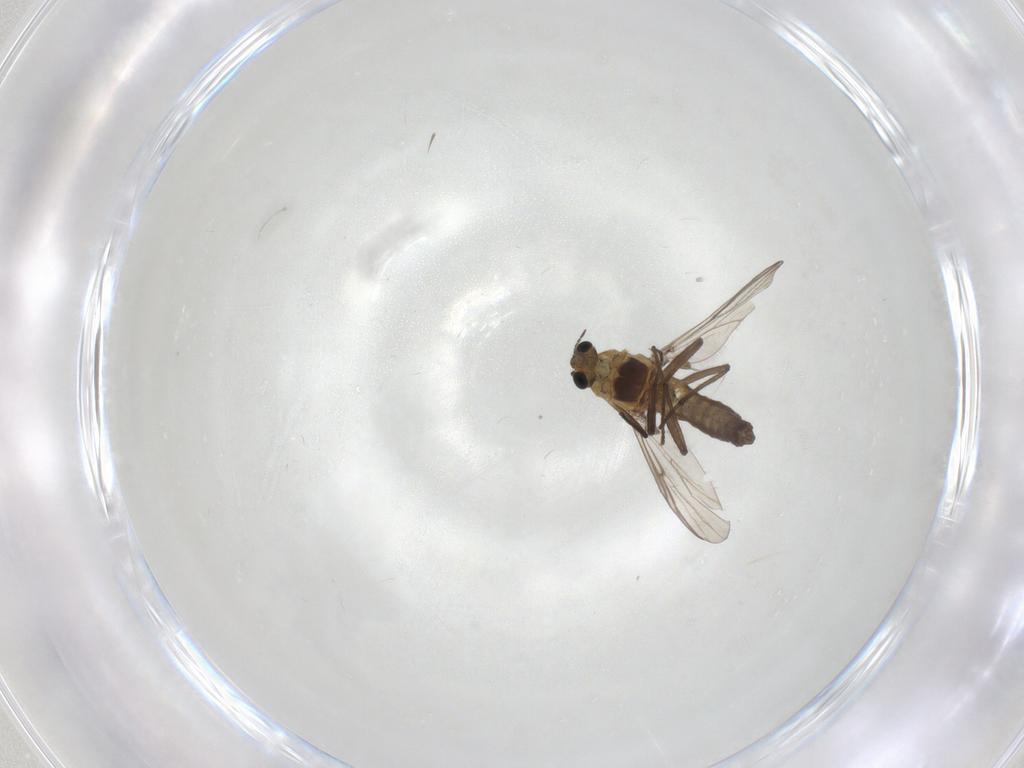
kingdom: Animalia
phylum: Arthropoda
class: Insecta
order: Diptera
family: Chironomidae
